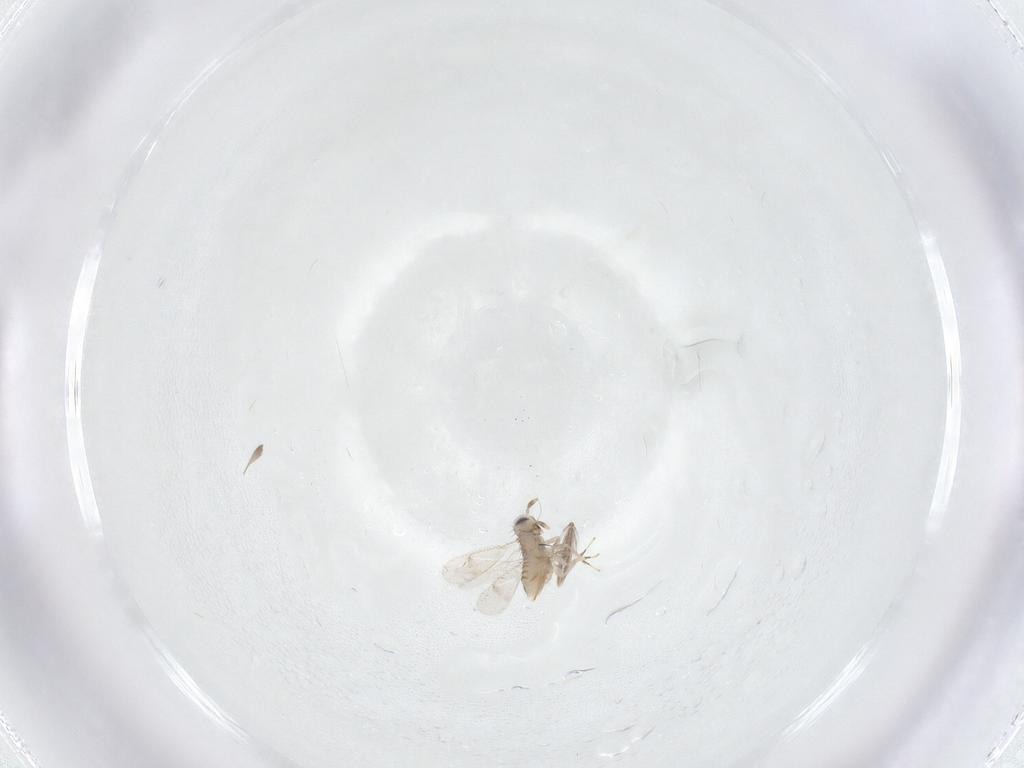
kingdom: Animalia
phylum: Arthropoda
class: Insecta
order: Hymenoptera
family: Aphelinidae
